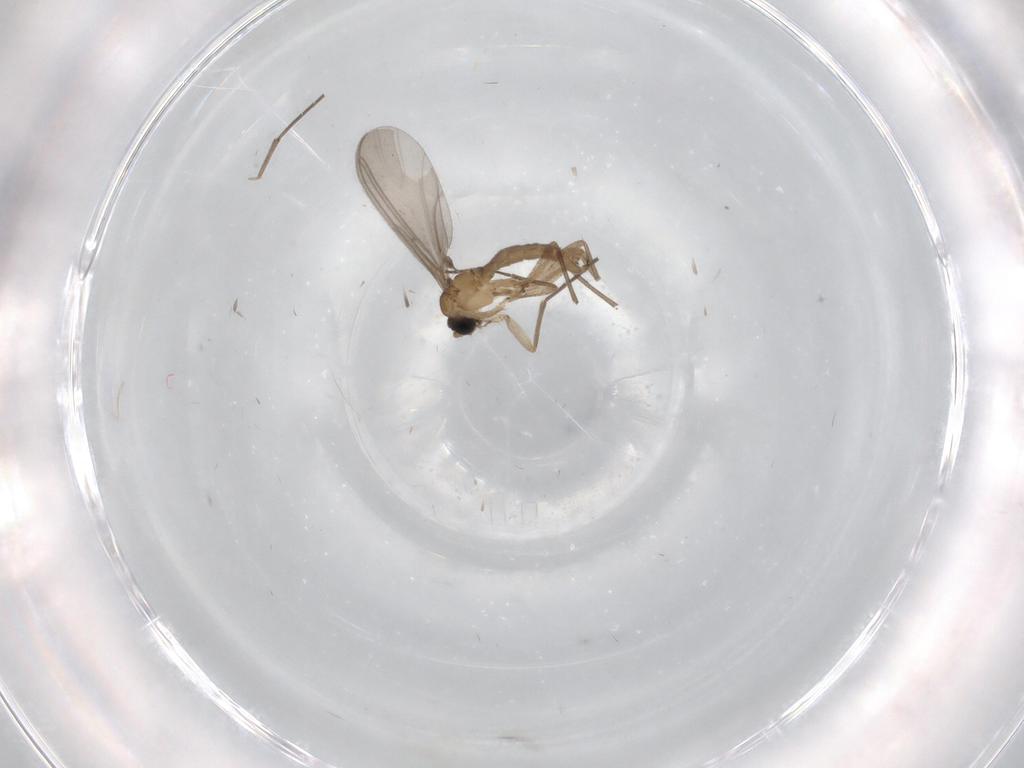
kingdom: Animalia
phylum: Arthropoda
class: Insecta
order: Diptera
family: Sciaridae
